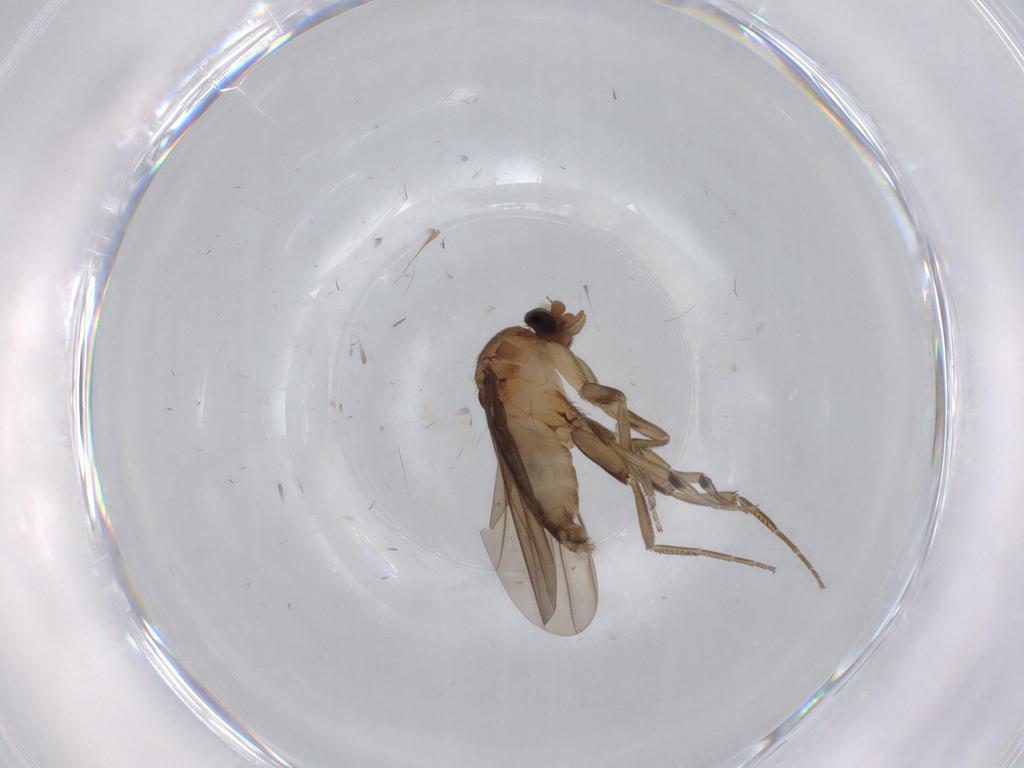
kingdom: Animalia
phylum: Arthropoda
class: Insecta
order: Diptera
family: Phoridae
